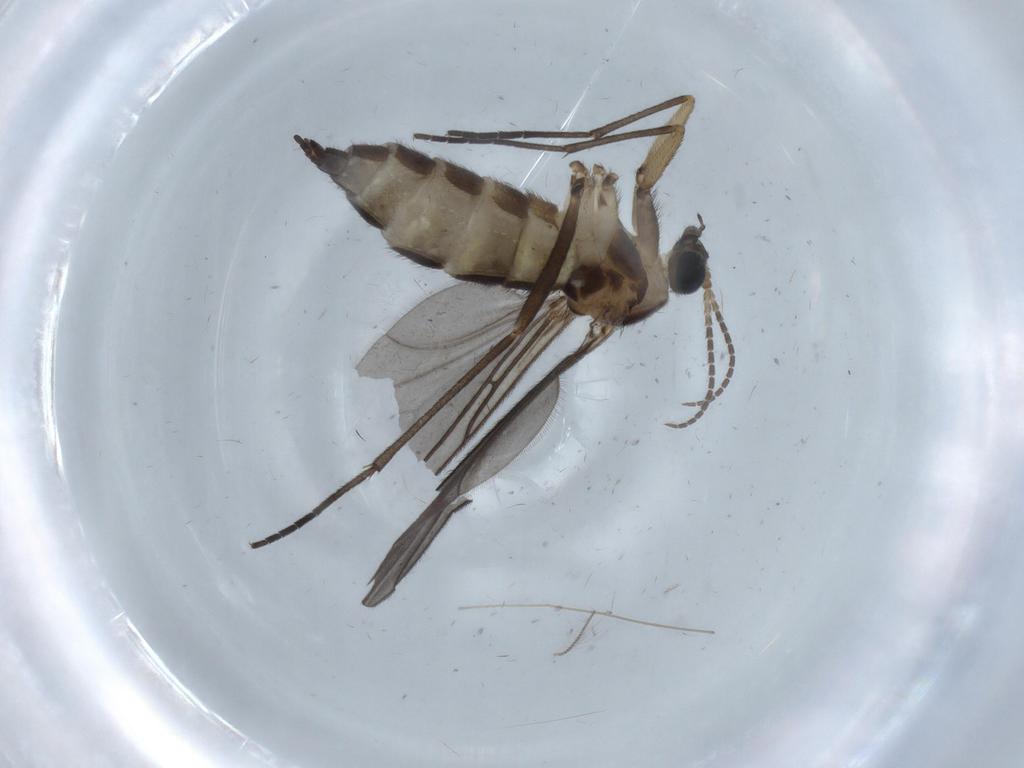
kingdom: Animalia
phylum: Arthropoda
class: Insecta
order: Diptera
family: Sciaridae
